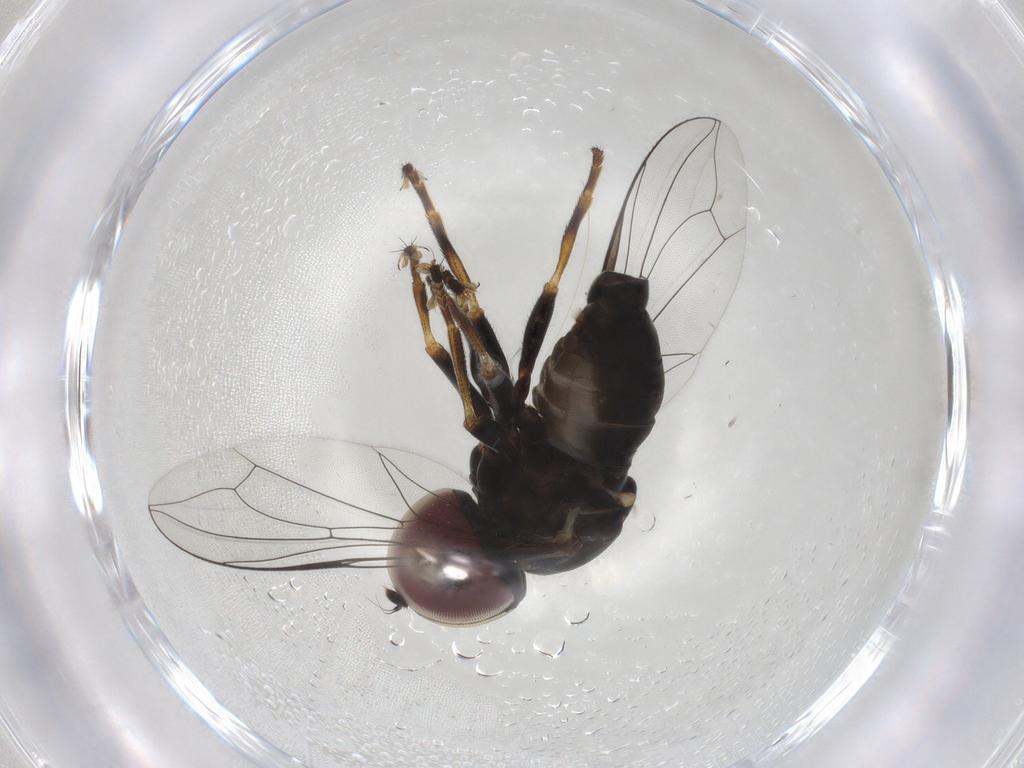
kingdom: Animalia
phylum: Arthropoda
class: Insecta
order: Diptera
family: Pipunculidae
